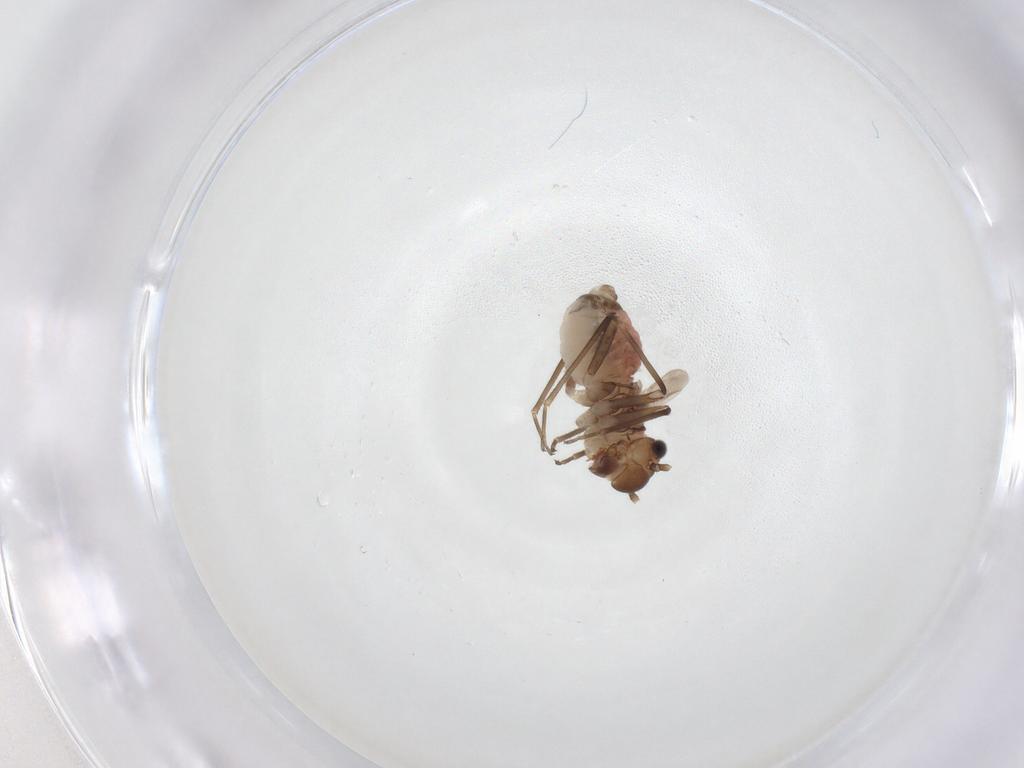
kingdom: Animalia
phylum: Arthropoda
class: Insecta
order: Psocodea
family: Caeciliusidae
